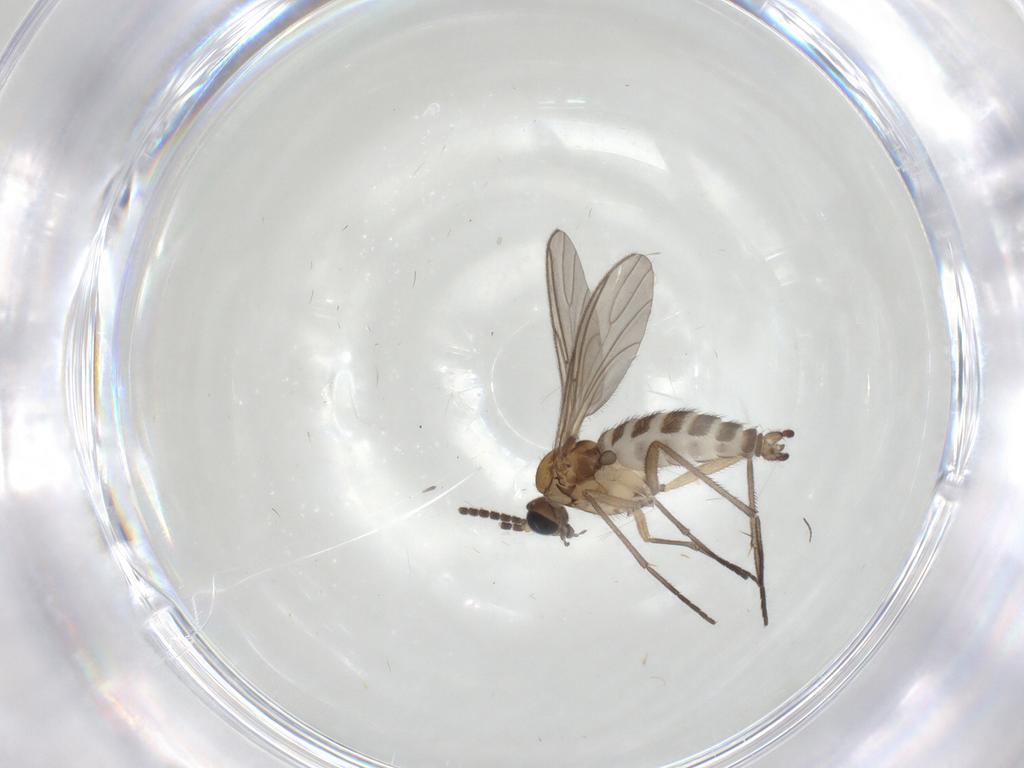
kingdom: Animalia
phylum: Arthropoda
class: Insecta
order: Diptera
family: Sciaridae
